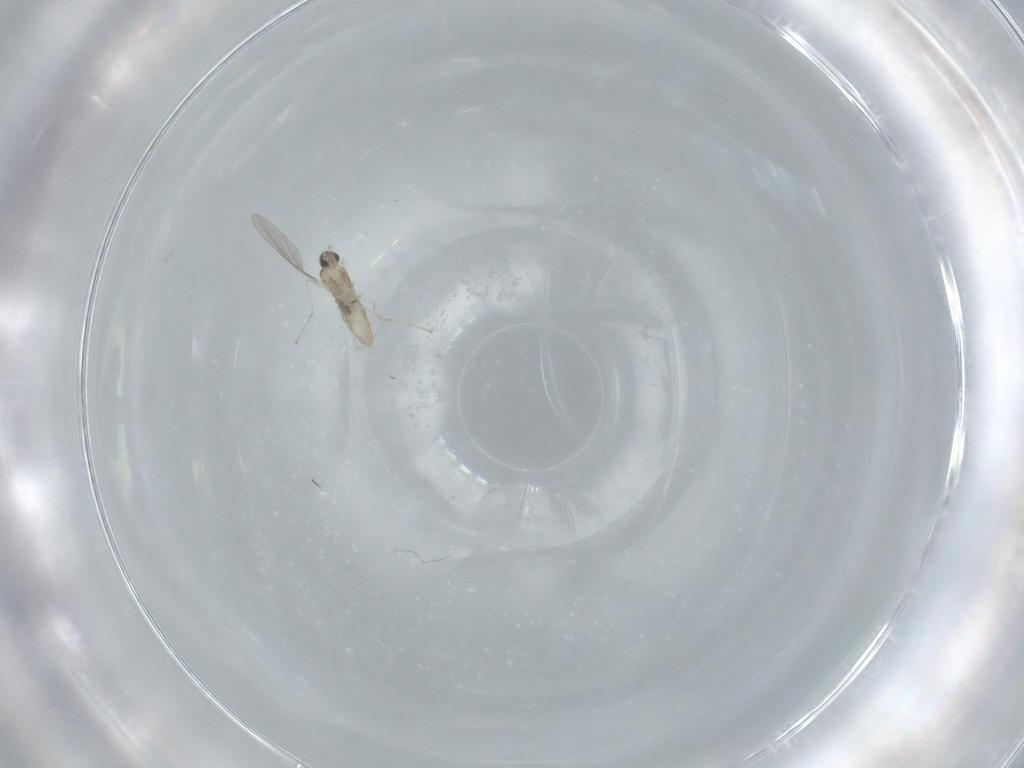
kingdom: Animalia
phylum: Arthropoda
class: Insecta
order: Diptera
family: Cecidomyiidae
